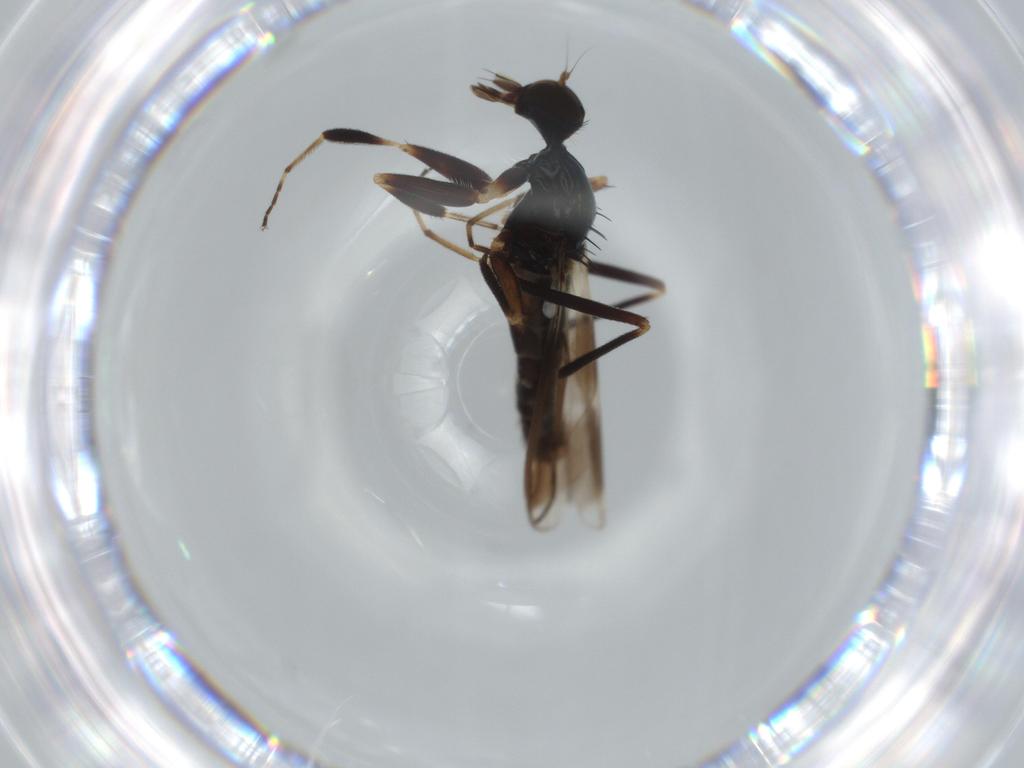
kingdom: Animalia
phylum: Arthropoda
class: Insecta
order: Diptera
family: Hybotidae
